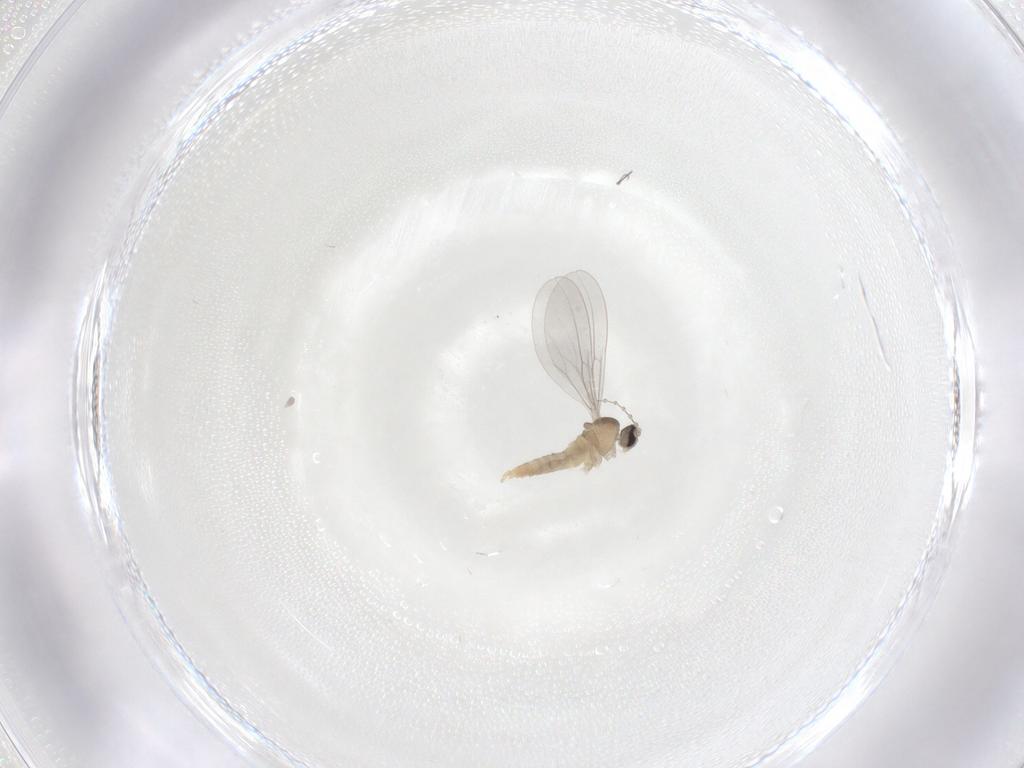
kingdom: Animalia
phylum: Arthropoda
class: Insecta
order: Diptera
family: Cecidomyiidae
